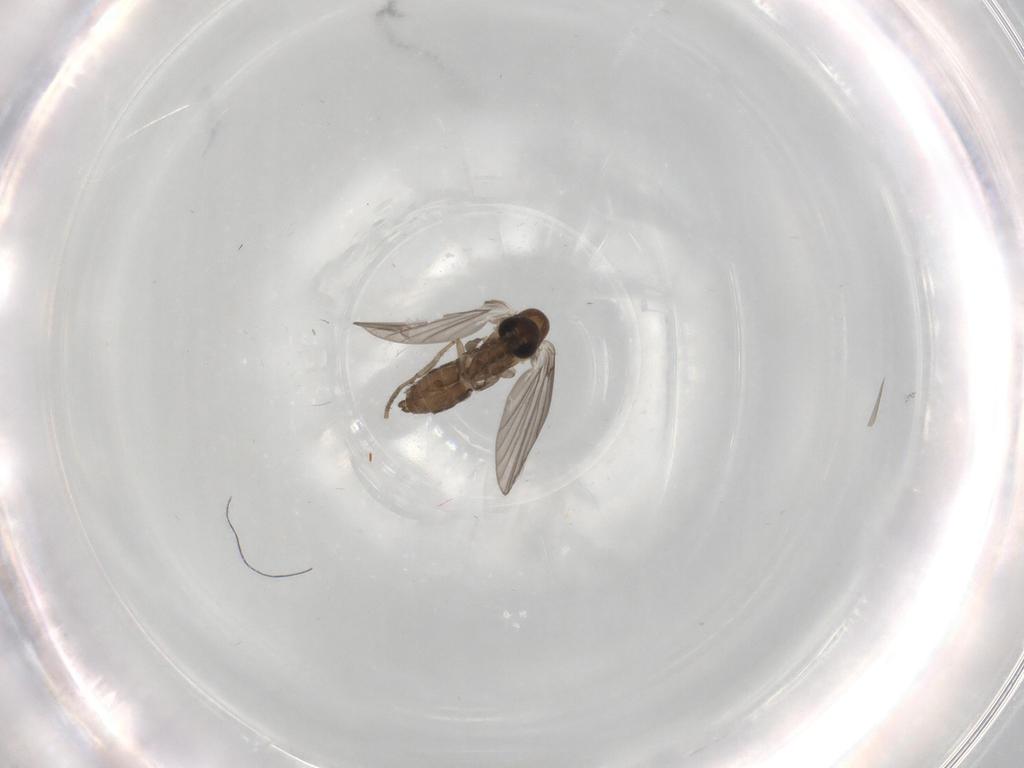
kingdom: Animalia
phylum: Arthropoda
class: Insecta
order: Diptera
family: Psychodidae
